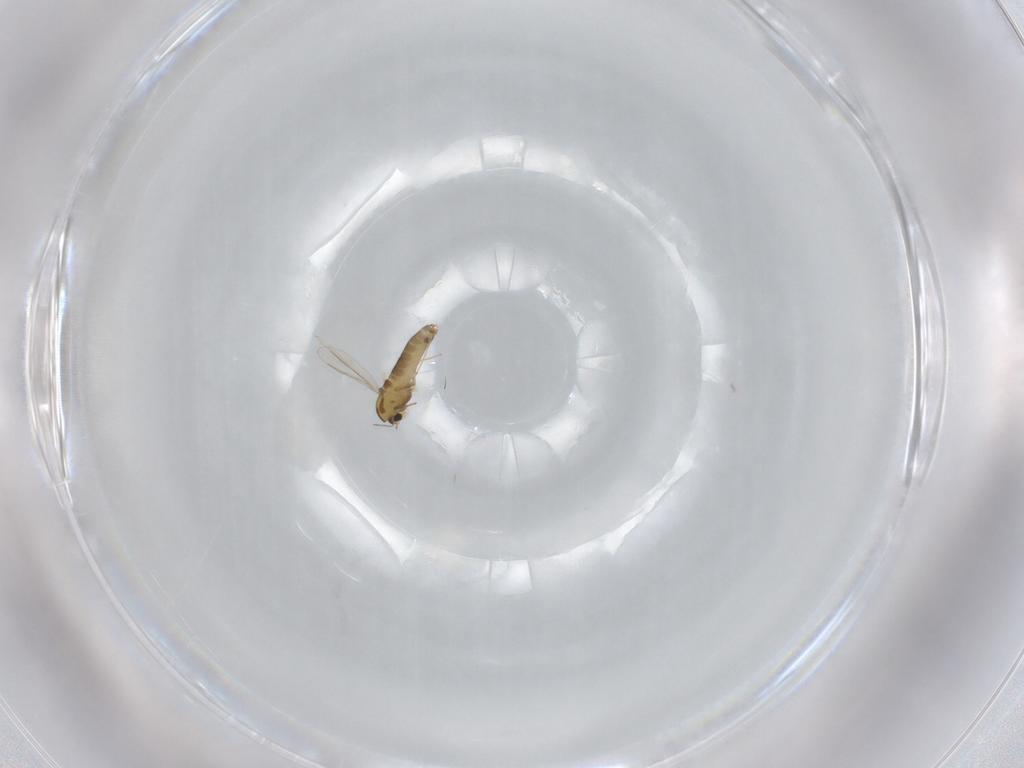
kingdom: Animalia
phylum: Arthropoda
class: Insecta
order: Diptera
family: Chironomidae
